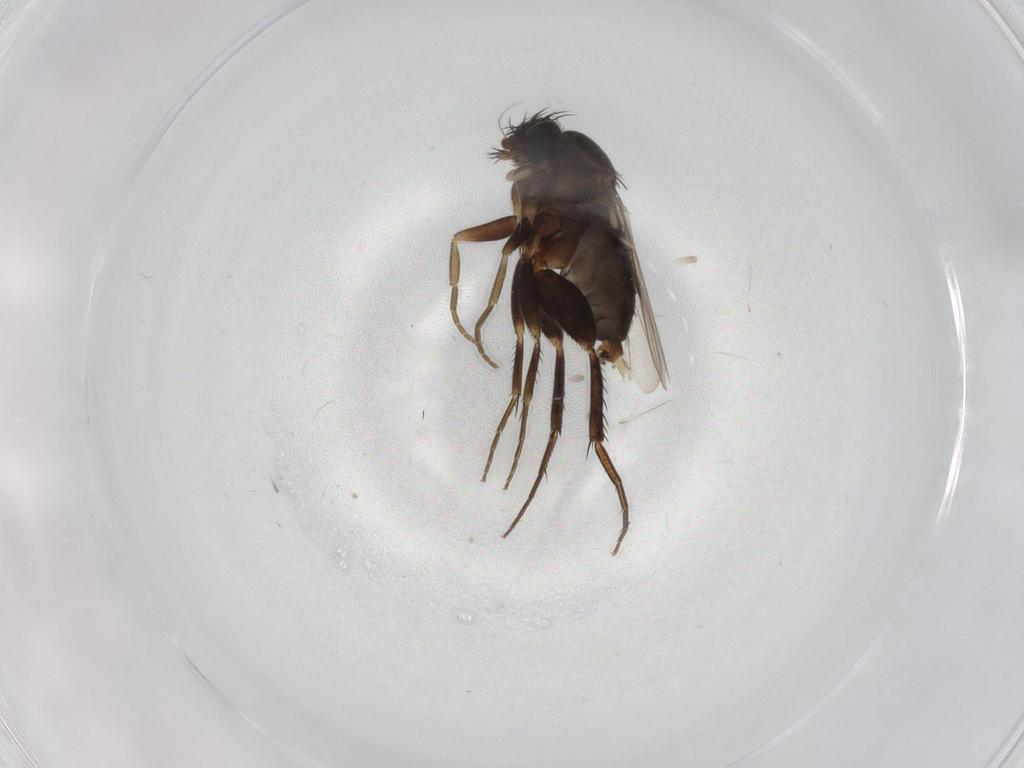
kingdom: Animalia
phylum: Arthropoda
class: Insecta
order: Diptera
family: Phoridae
